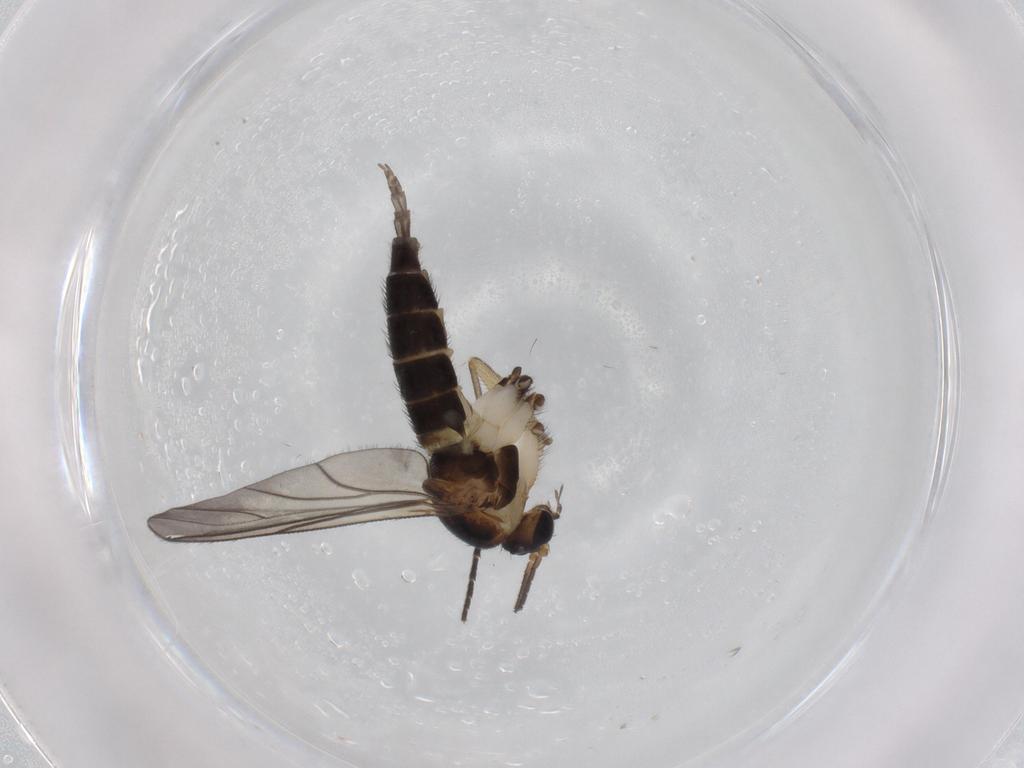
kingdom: Animalia
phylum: Arthropoda
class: Insecta
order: Diptera
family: Sciaridae
